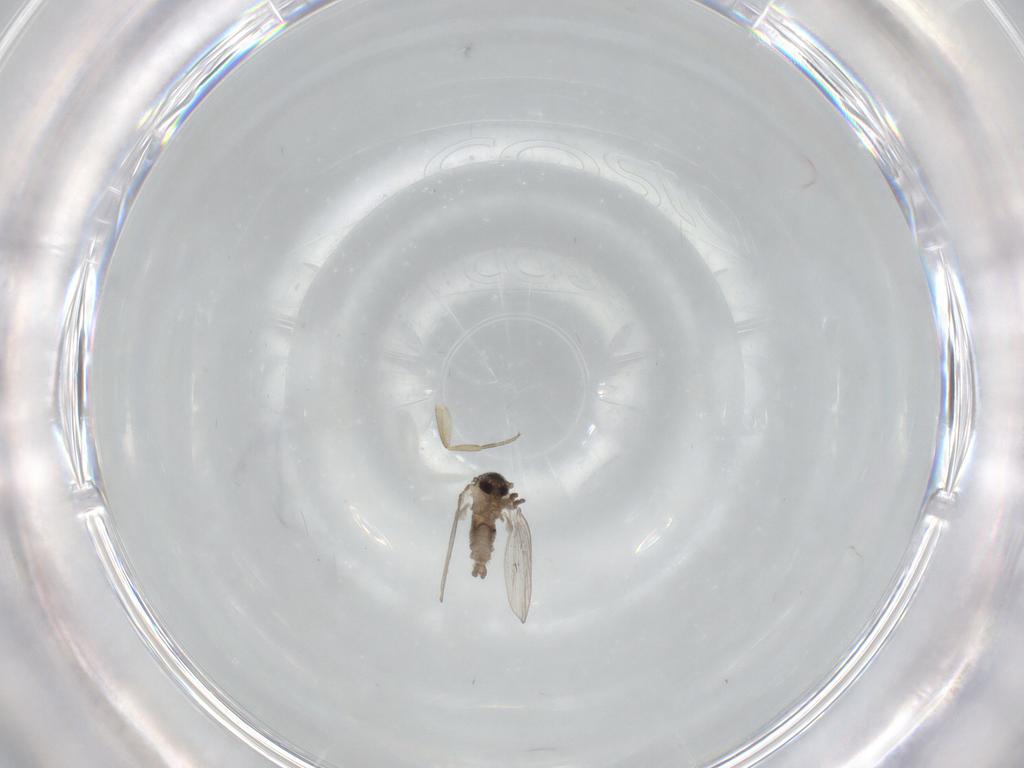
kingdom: Animalia
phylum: Arthropoda
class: Insecta
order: Diptera
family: Psychodidae
